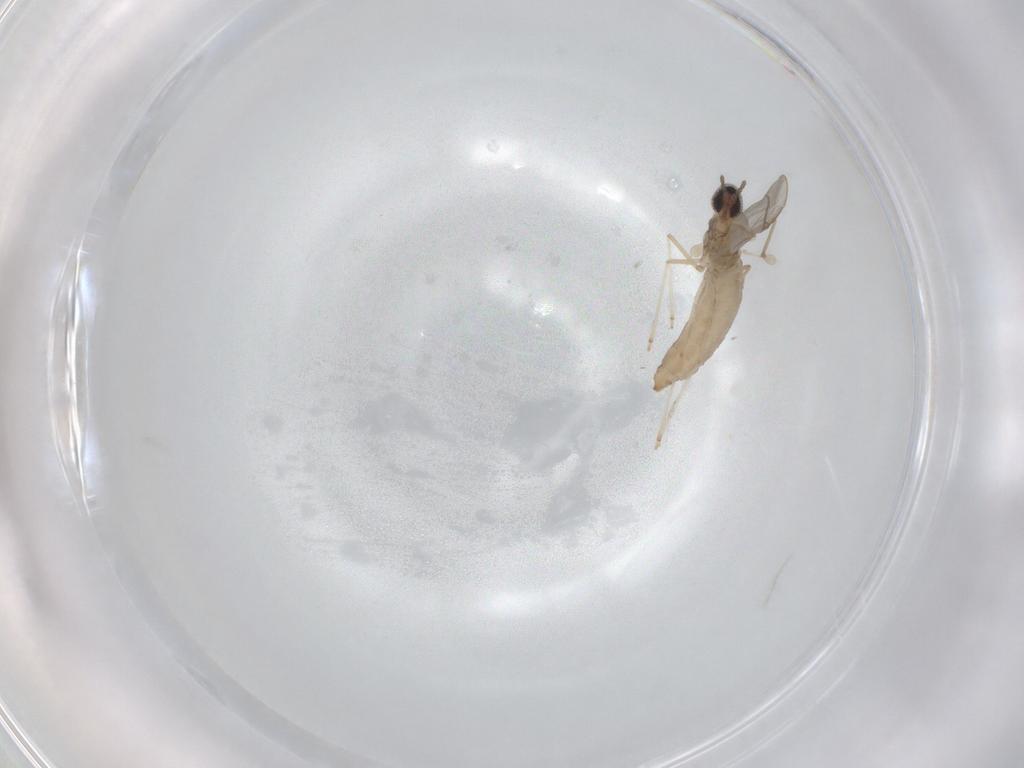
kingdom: Animalia
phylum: Arthropoda
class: Insecta
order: Diptera
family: Cecidomyiidae
